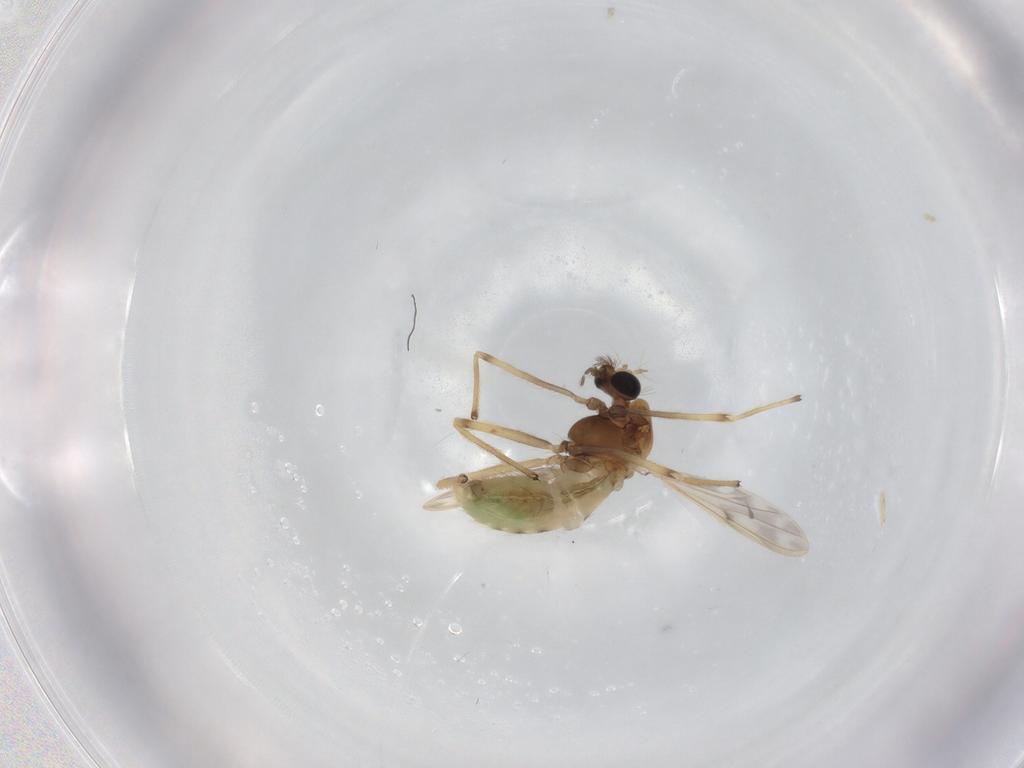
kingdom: Animalia
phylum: Arthropoda
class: Insecta
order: Diptera
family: Chironomidae
